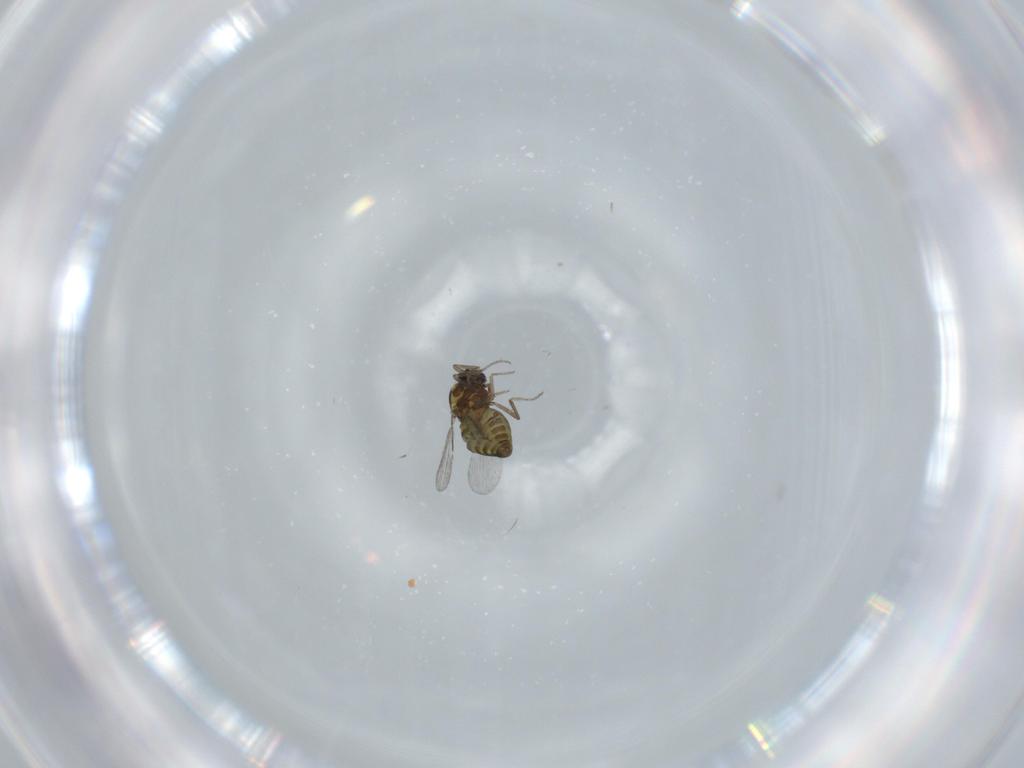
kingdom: Animalia
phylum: Arthropoda
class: Insecta
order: Diptera
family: Ceratopogonidae
